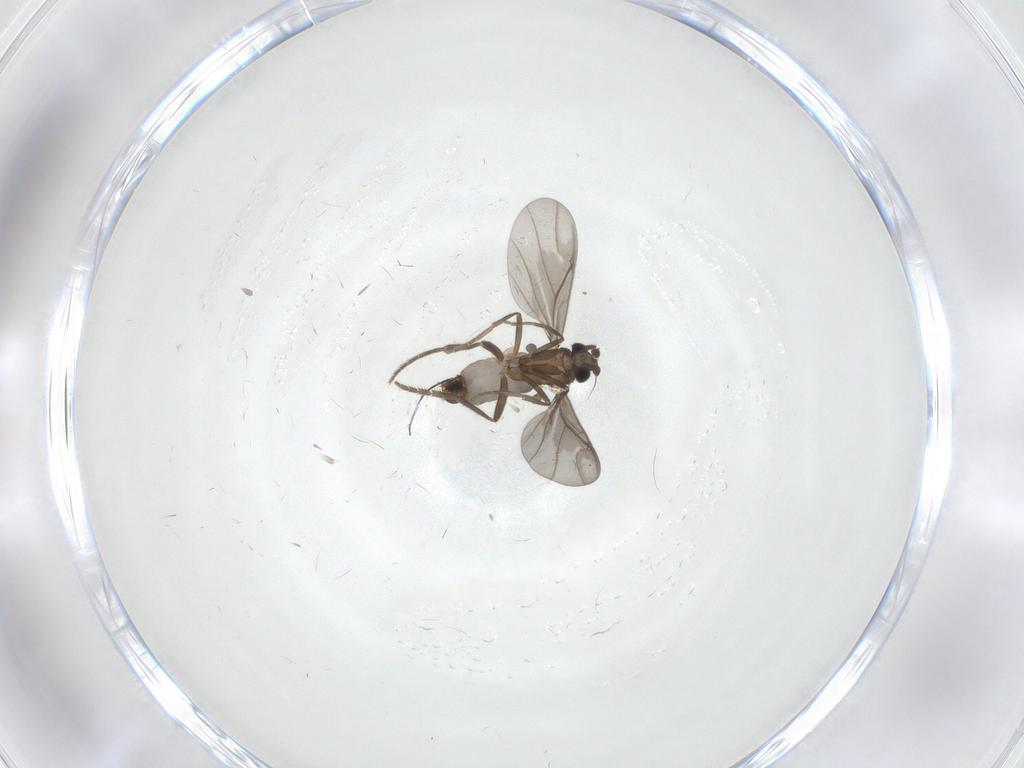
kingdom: Animalia
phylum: Arthropoda
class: Insecta
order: Diptera
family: Phoridae
